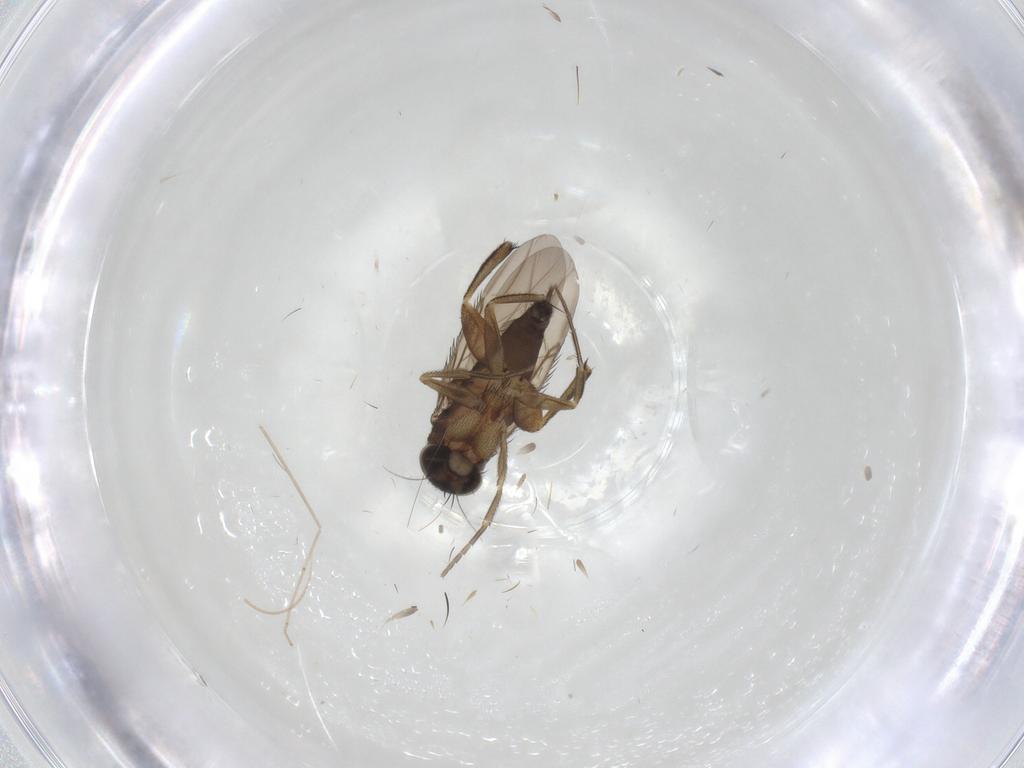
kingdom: Animalia
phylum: Arthropoda
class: Insecta
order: Diptera
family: Phoridae
